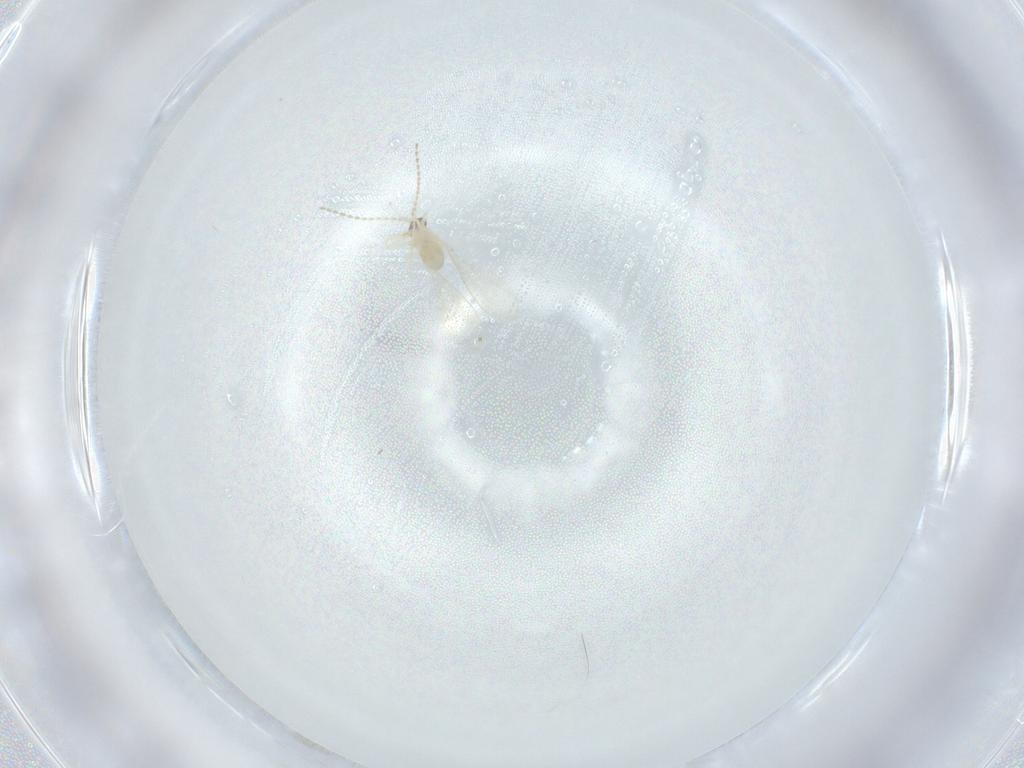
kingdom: Animalia
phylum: Arthropoda
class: Insecta
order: Diptera
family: Cecidomyiidae
